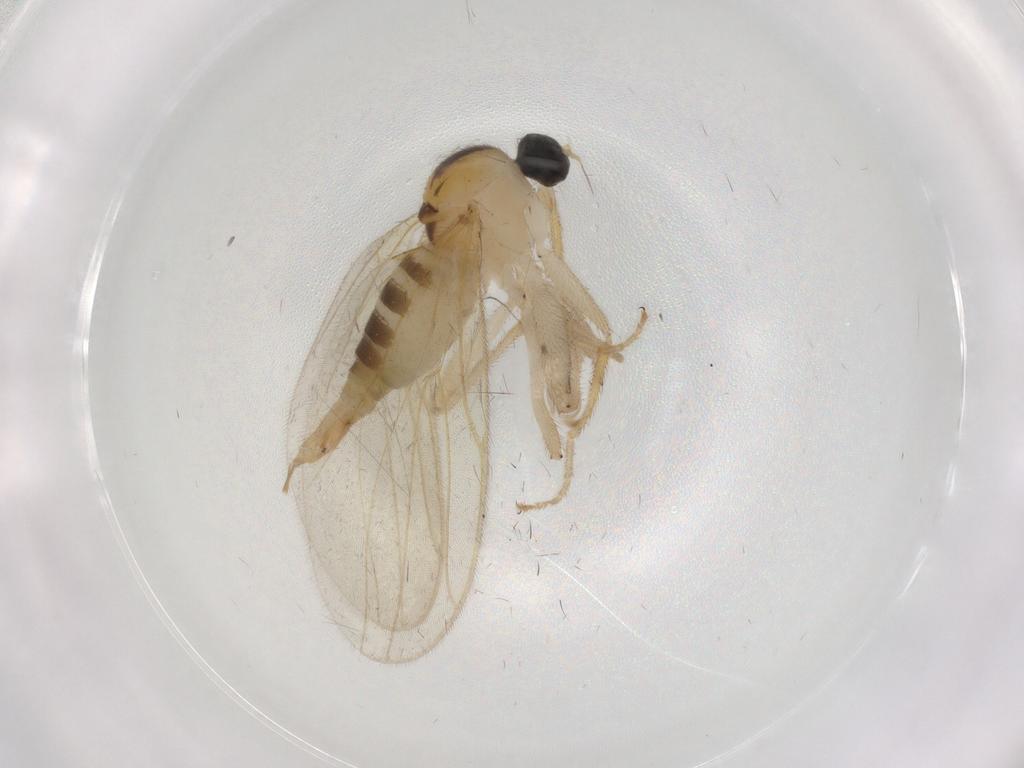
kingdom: Animalia
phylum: Arthropoda
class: Insecta
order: Diptera
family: Hybotidae
